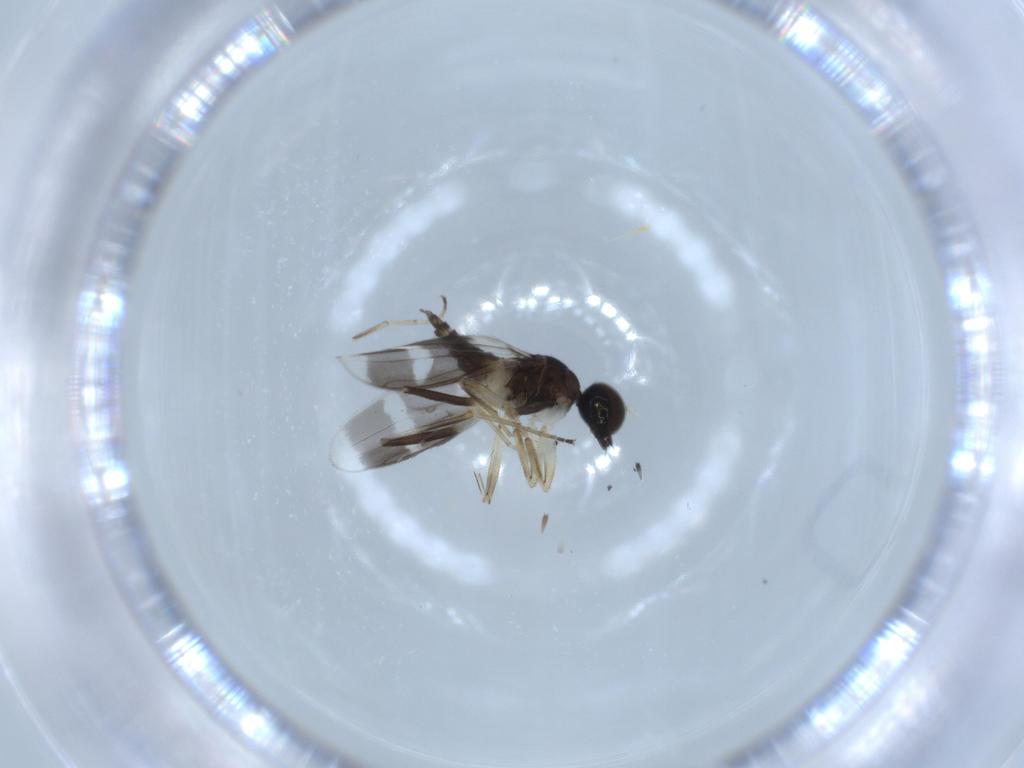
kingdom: Animalia
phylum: Arthropoda
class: Insecta
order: Diptera
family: Hybotidae
